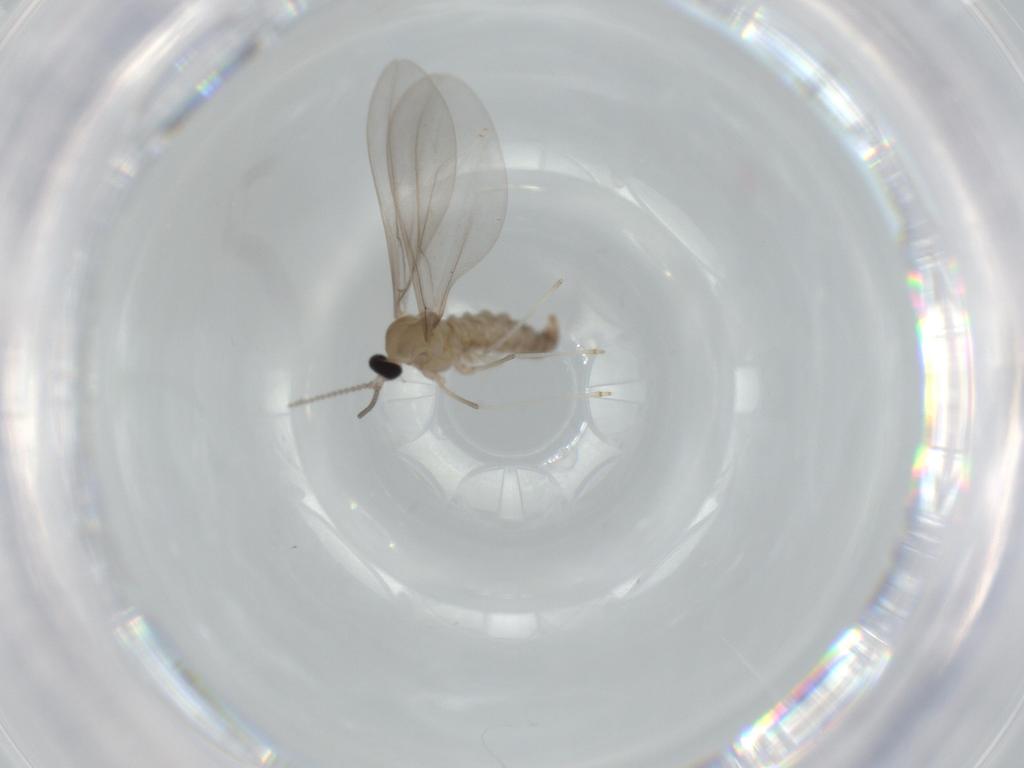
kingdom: Animalia
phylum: Arthropoda
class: Insecta
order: Diptera
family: Cecidomyiidae
